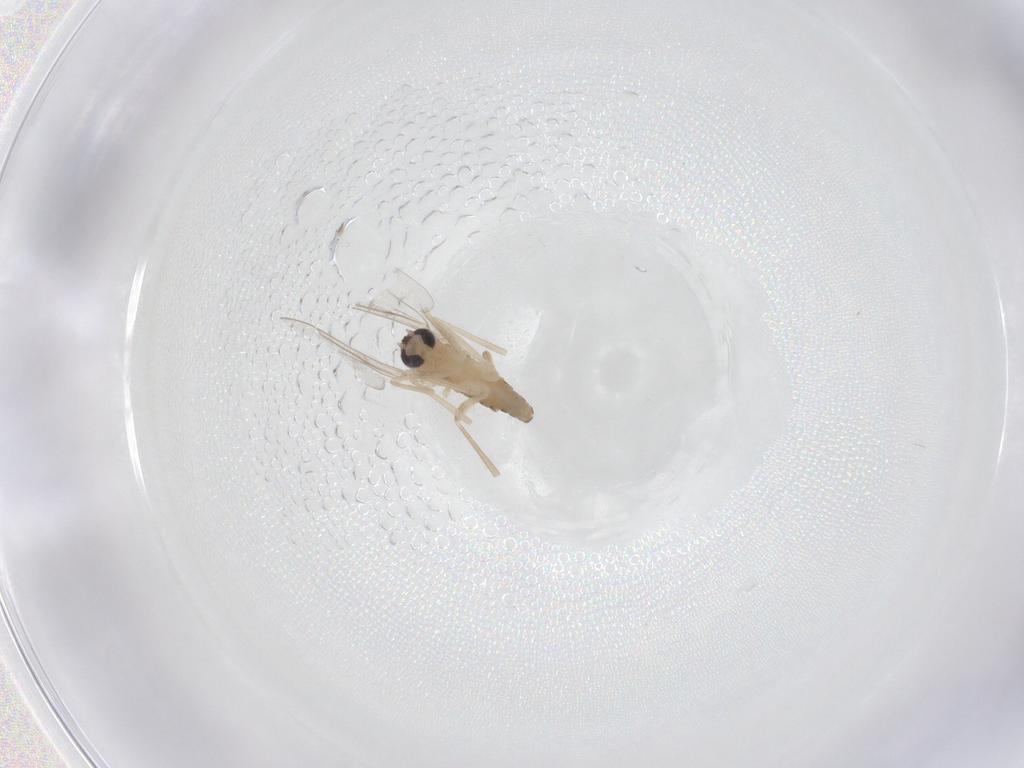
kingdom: Animalia
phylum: Arthropoda
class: Insecta
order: Diptera
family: Cecidomyiidae
